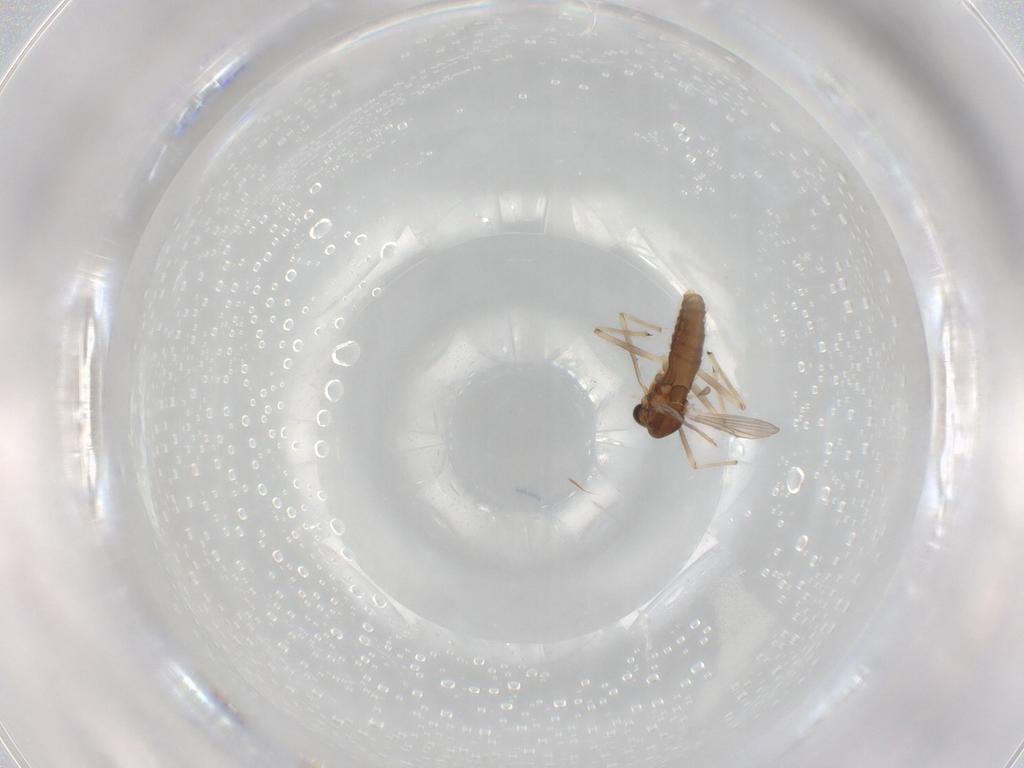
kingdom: Animalia
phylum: Arthropoda
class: Insecta
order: Diptera
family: Chironomidae
